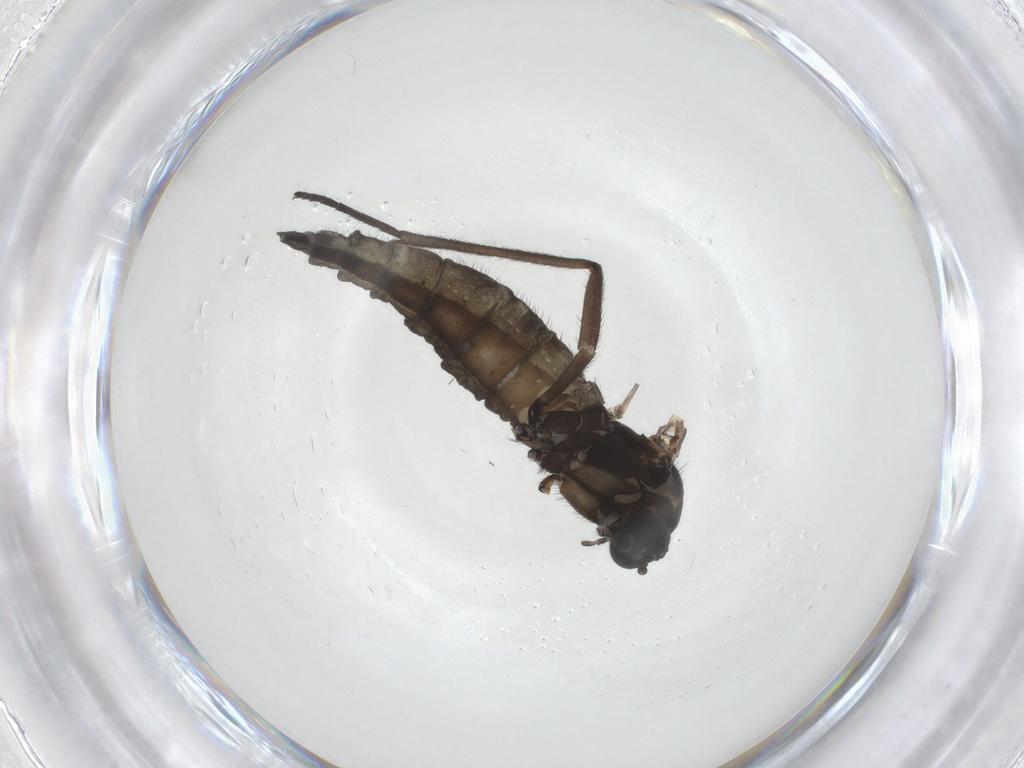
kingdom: Animalia
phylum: Arthropoda
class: Insecta
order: Diptera
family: Sciaridae
